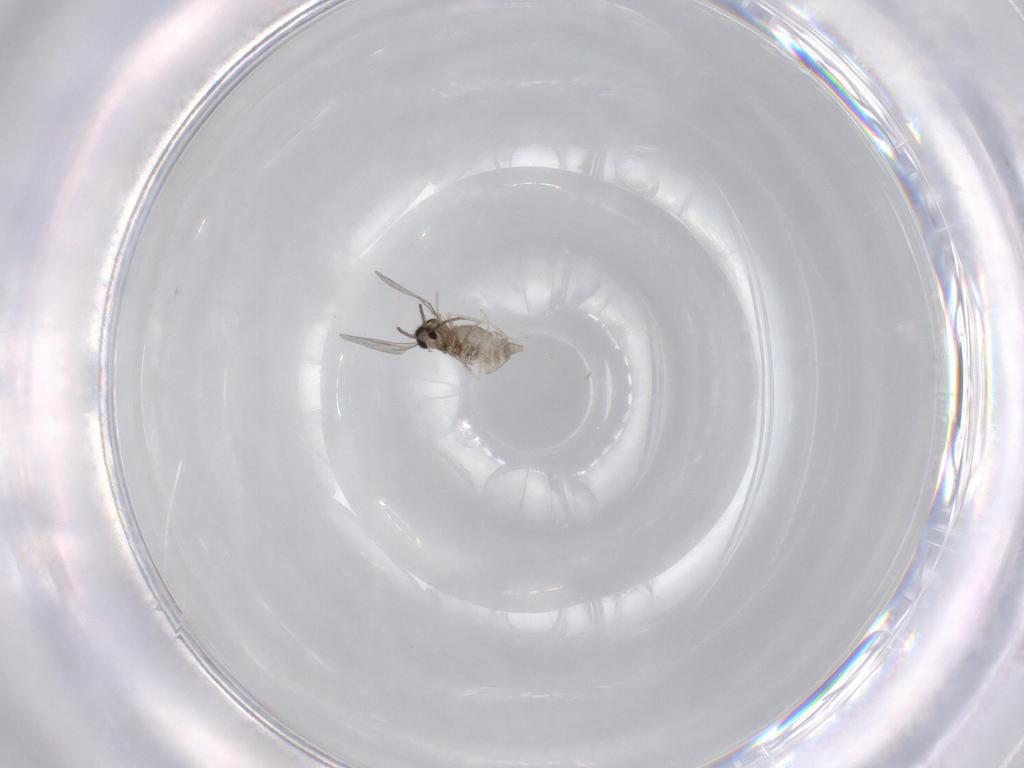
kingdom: Animalia
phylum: Arthropoda
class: Insecta
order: Diptera
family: Cecidomyiidae
